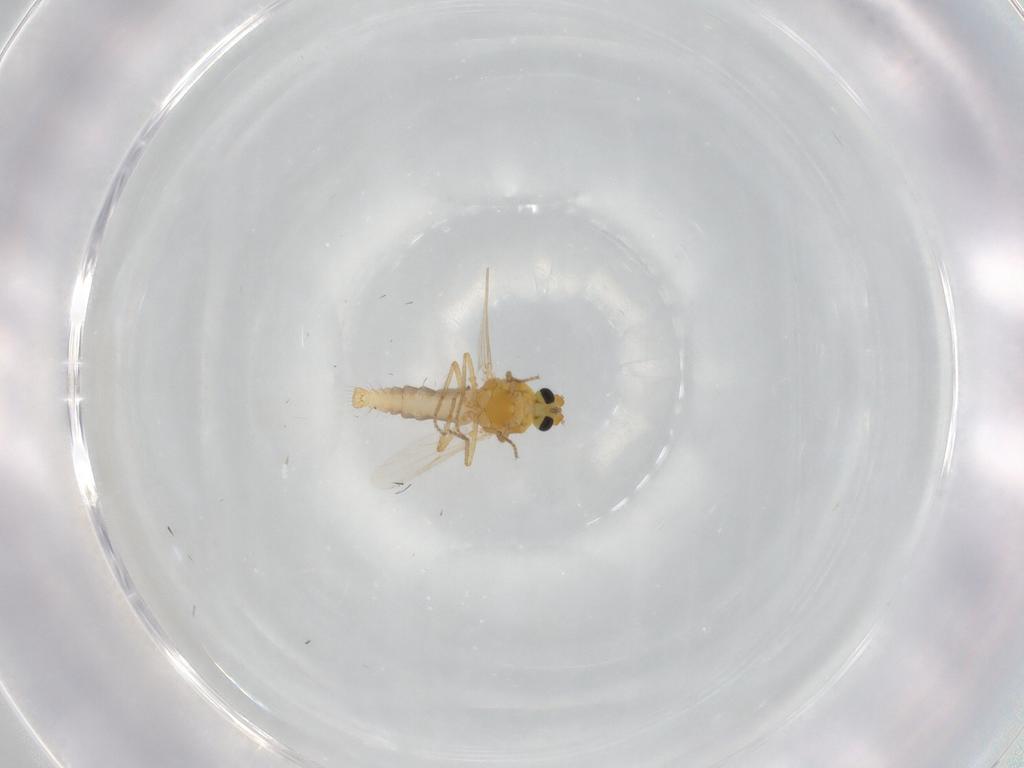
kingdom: Animalia
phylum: Arthropoda
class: Insecta
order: Diptera
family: Ceratopogonidae
